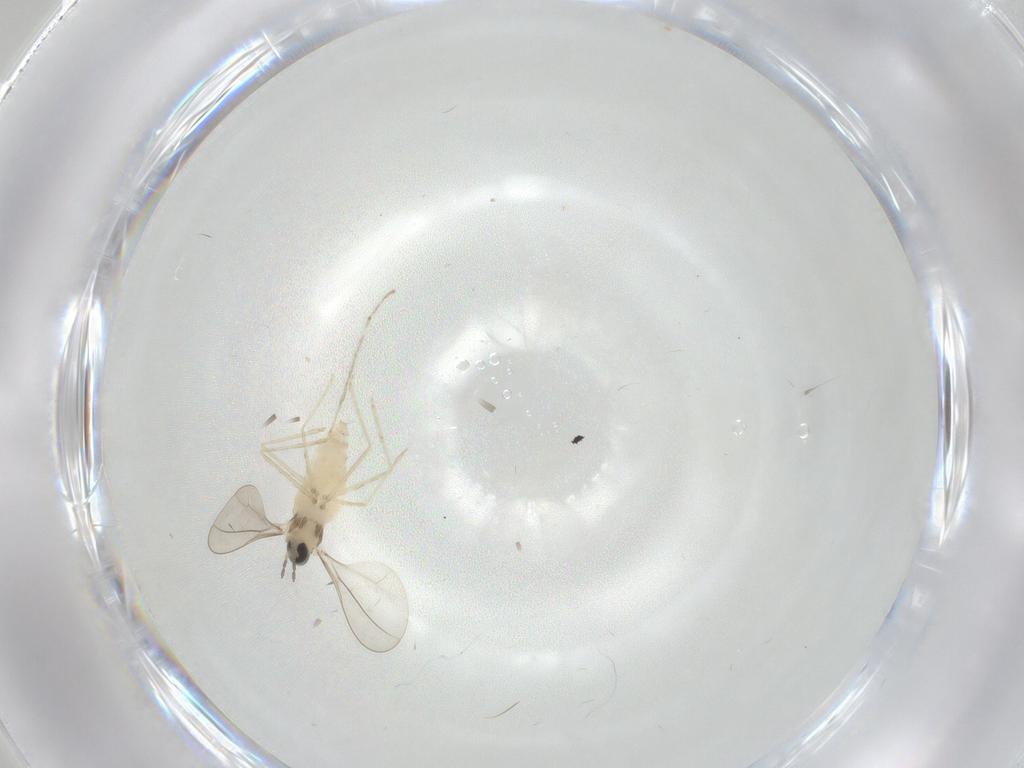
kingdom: Animalia
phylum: Arthropoda
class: Insecta
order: Diptera
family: Cecidomyiidae
